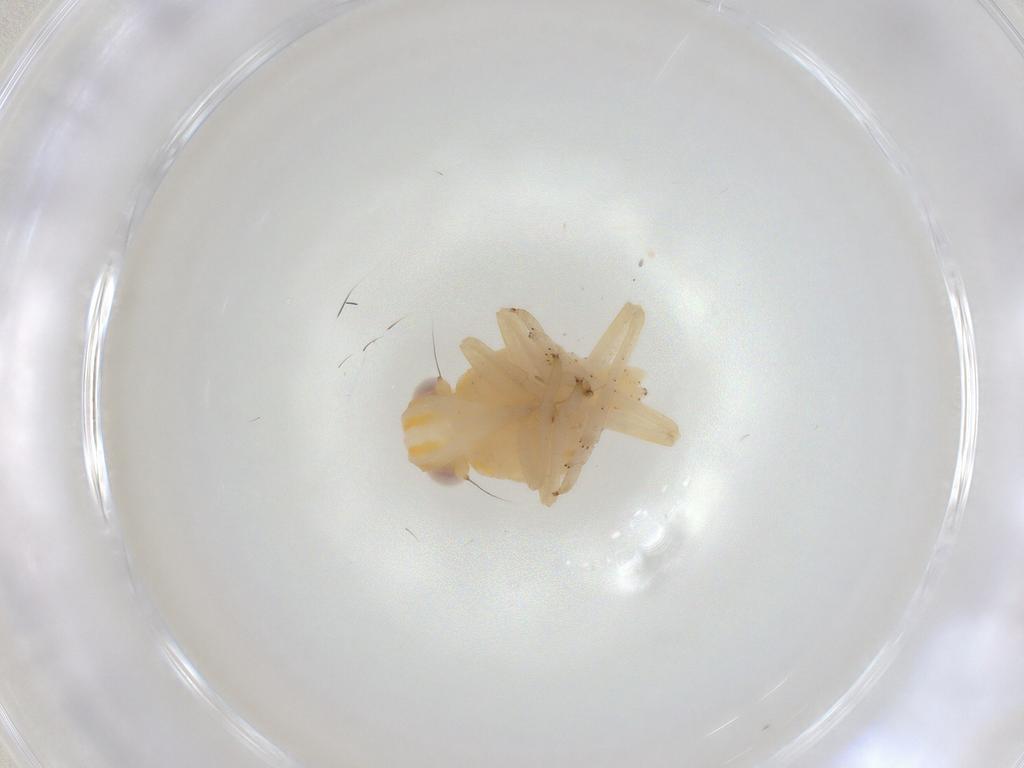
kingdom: Animalia
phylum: Arthropoda
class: Insecta
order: Hemiptera
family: Tropiduchidae
